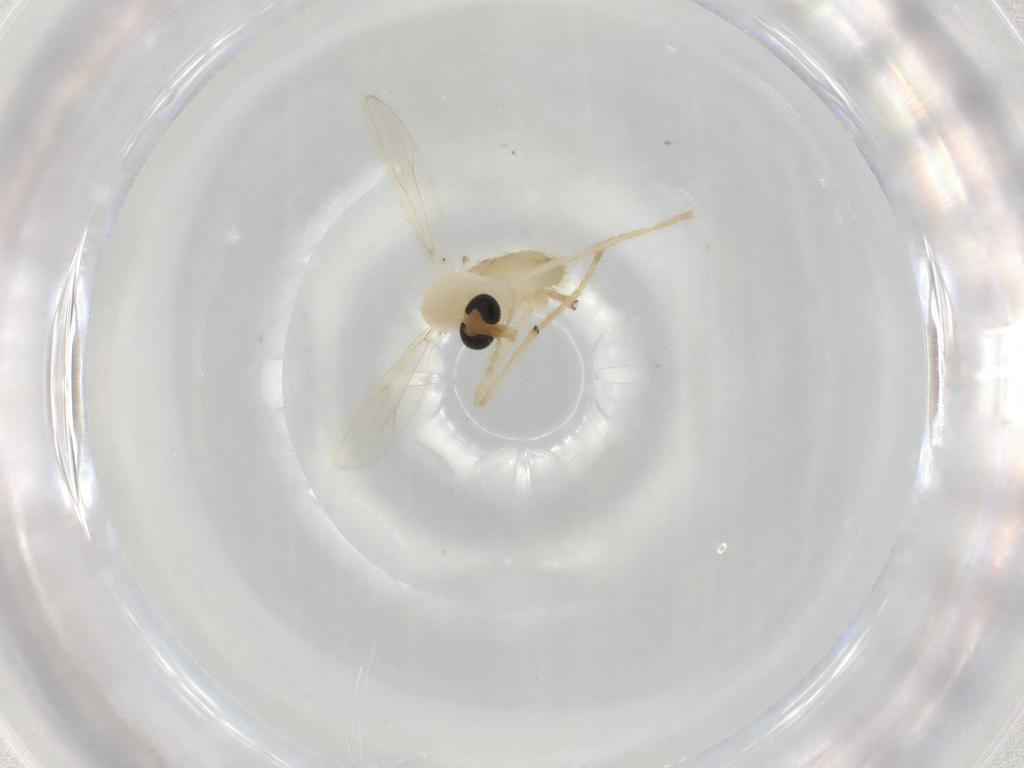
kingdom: Animalia
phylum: Arthropoda
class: Insecta
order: Diptera
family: Chironomidae
